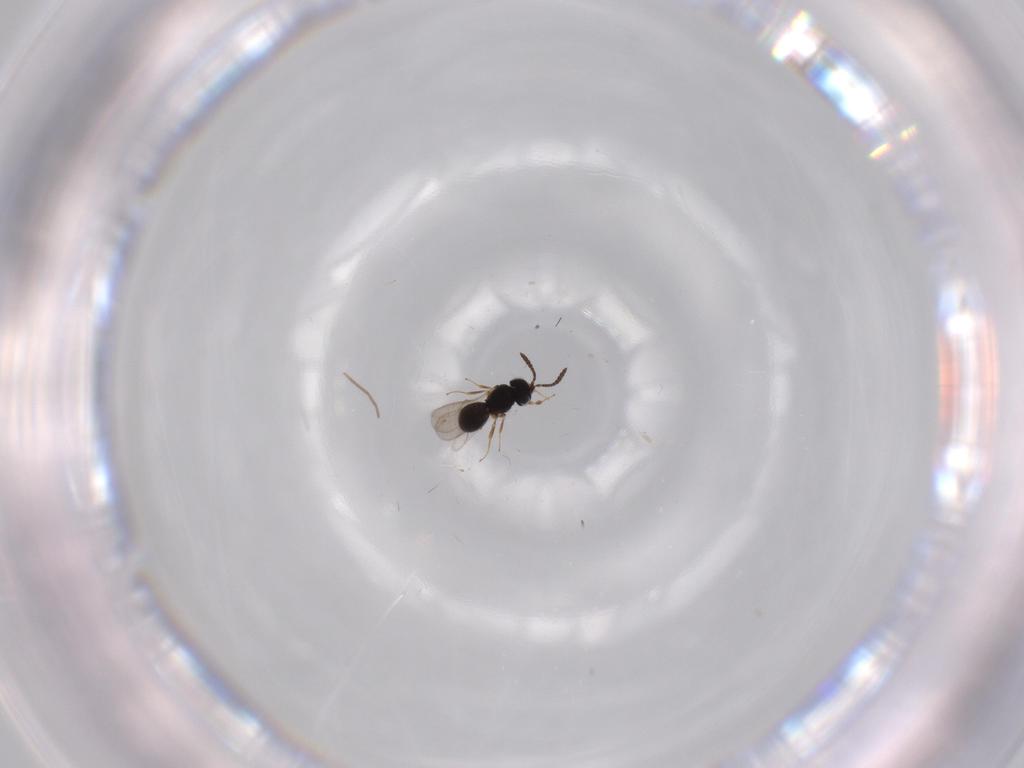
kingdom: Animalia
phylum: Arthropoda
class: Insecta
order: Hymenoptera
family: Scelionidae
